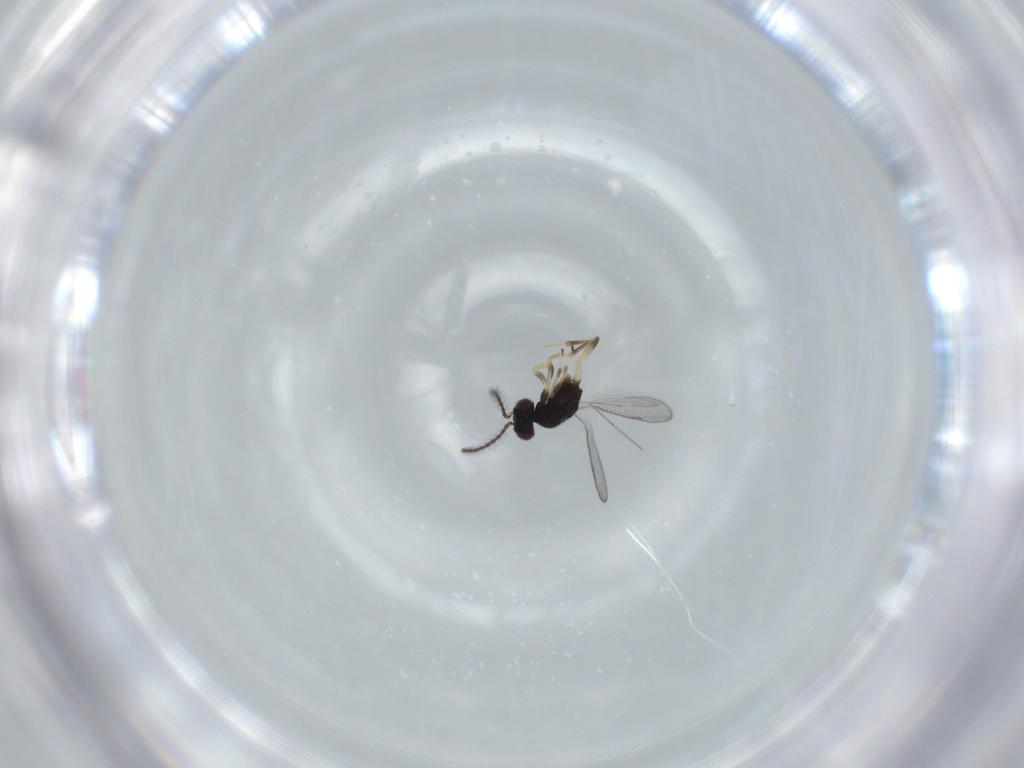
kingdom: Animalia
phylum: Arthropoda
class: Insecta
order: Hymenoptera
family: Eupelmidae
